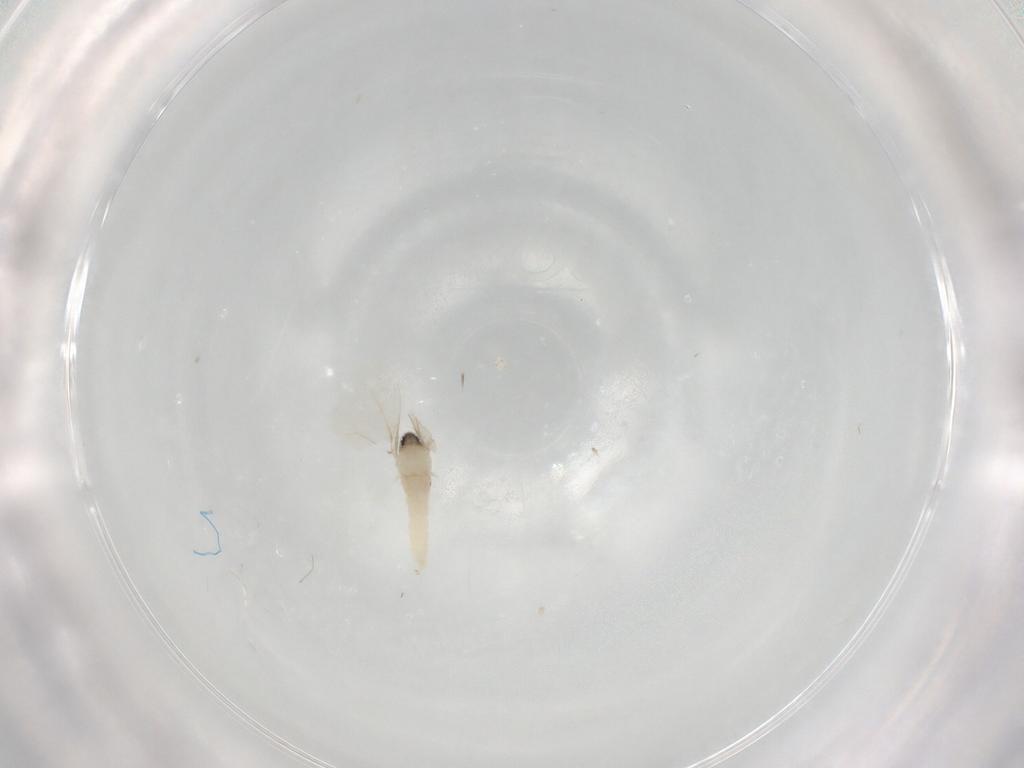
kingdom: Animalia
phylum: Arthropoda
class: Insecta
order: Diptera
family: Cecidomyiidae
